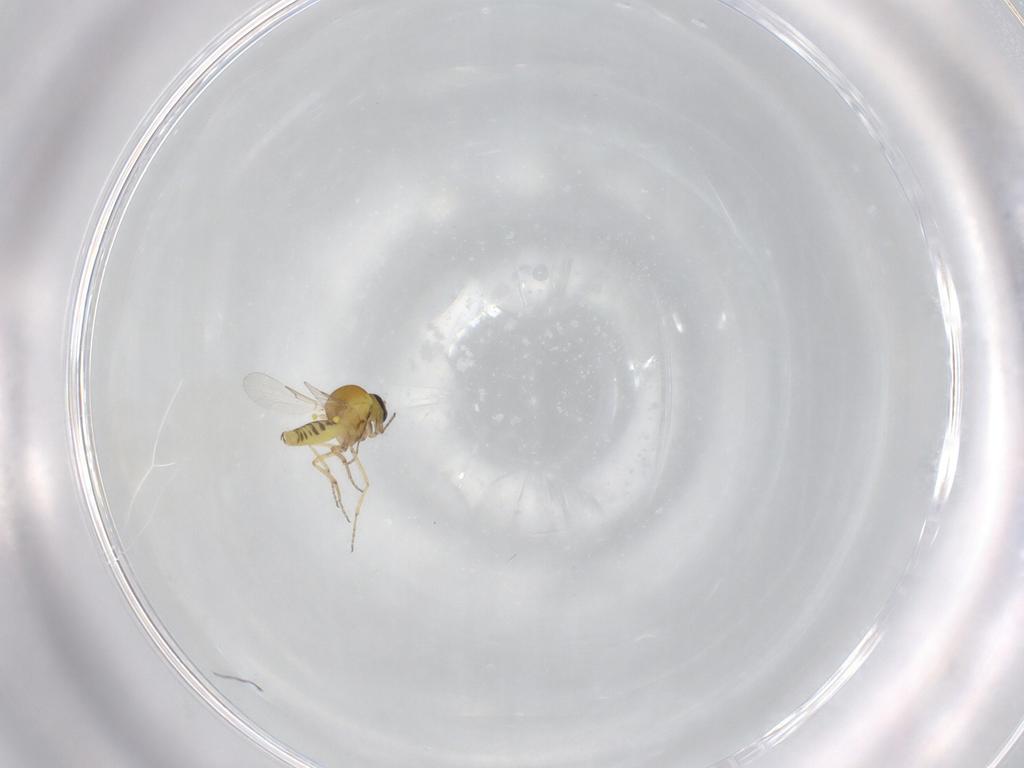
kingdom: Animalia
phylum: Arthropoda
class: Insecta
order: Diptera
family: Ceratopogonidae
